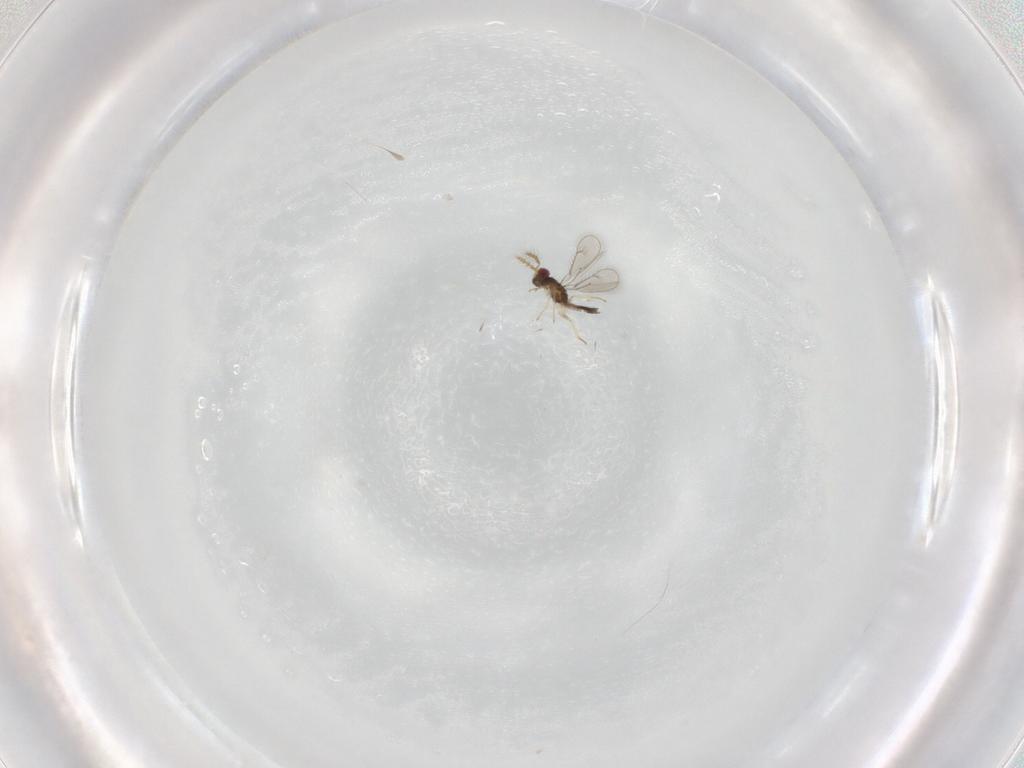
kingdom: Animalia
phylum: Arthropoda
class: Insecta
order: Hymenoptera
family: Eulophidae
